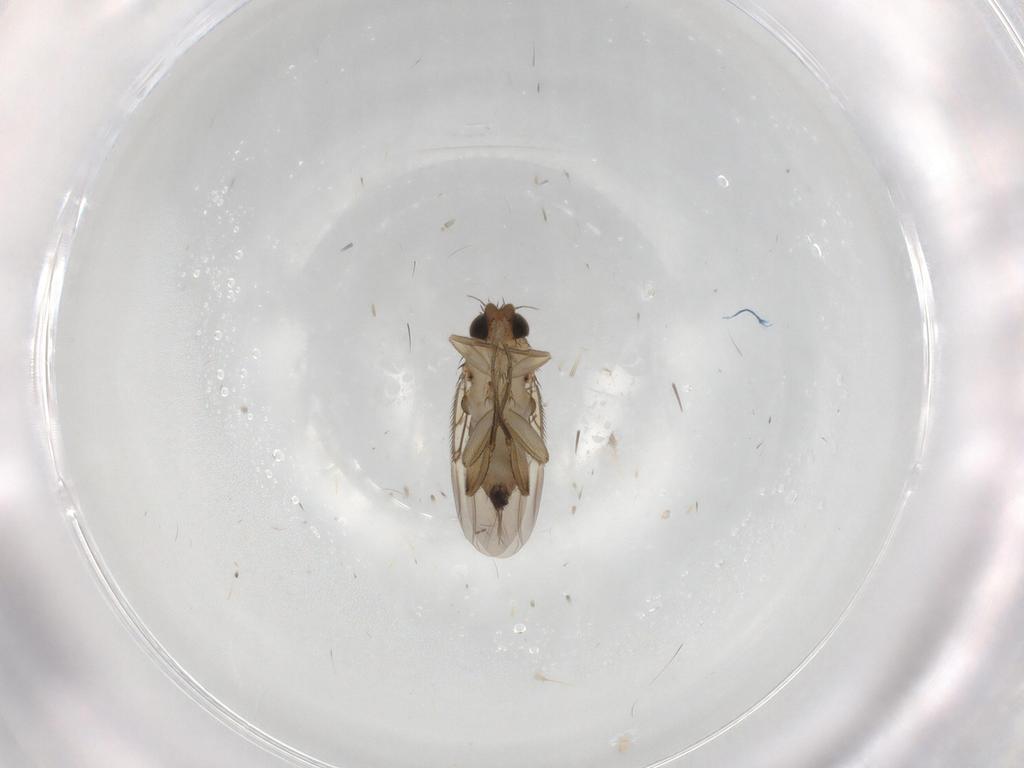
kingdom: Animalia
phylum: Arthropoda
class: Insecta
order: Diptera
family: Phoridae
